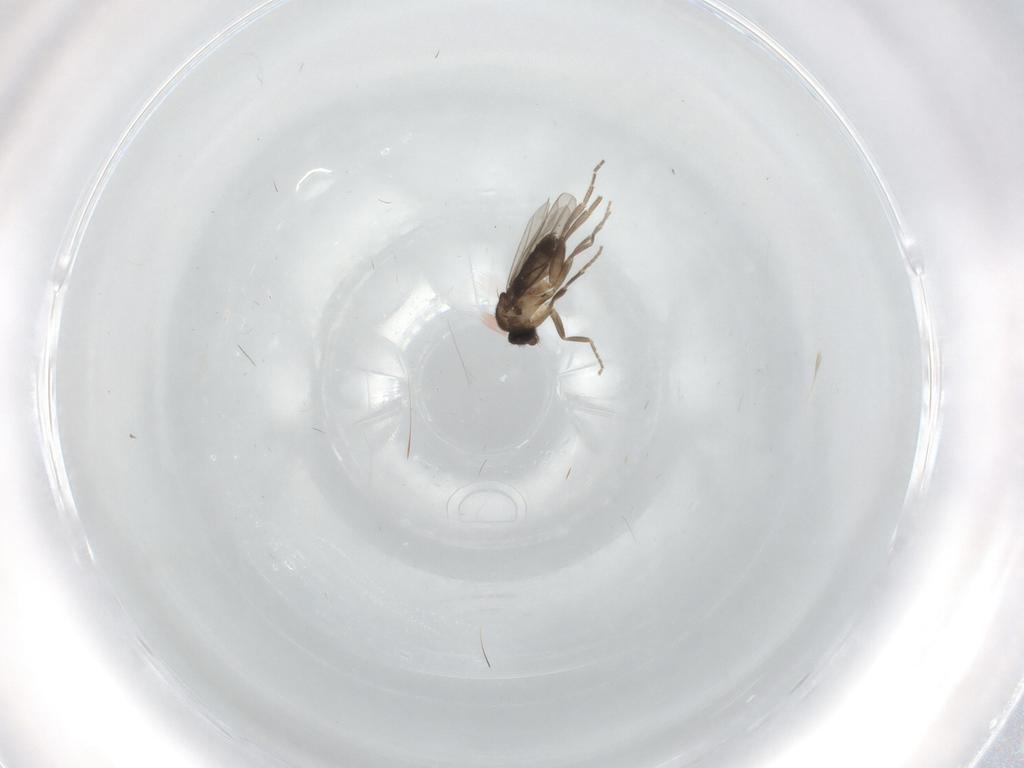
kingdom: Animalia
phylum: Arthropoda
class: Insecta
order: Diptera
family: Phoridae
